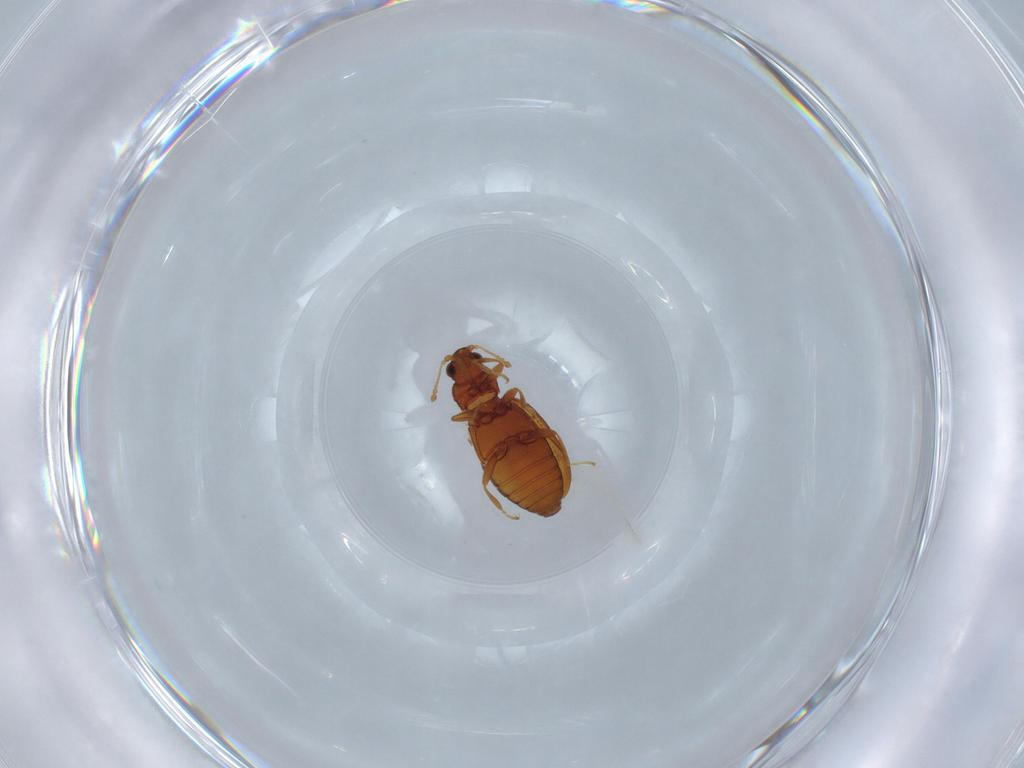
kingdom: Animalia
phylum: Arthropoda
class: Insecta
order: Coleoptera
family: Latridiidae
